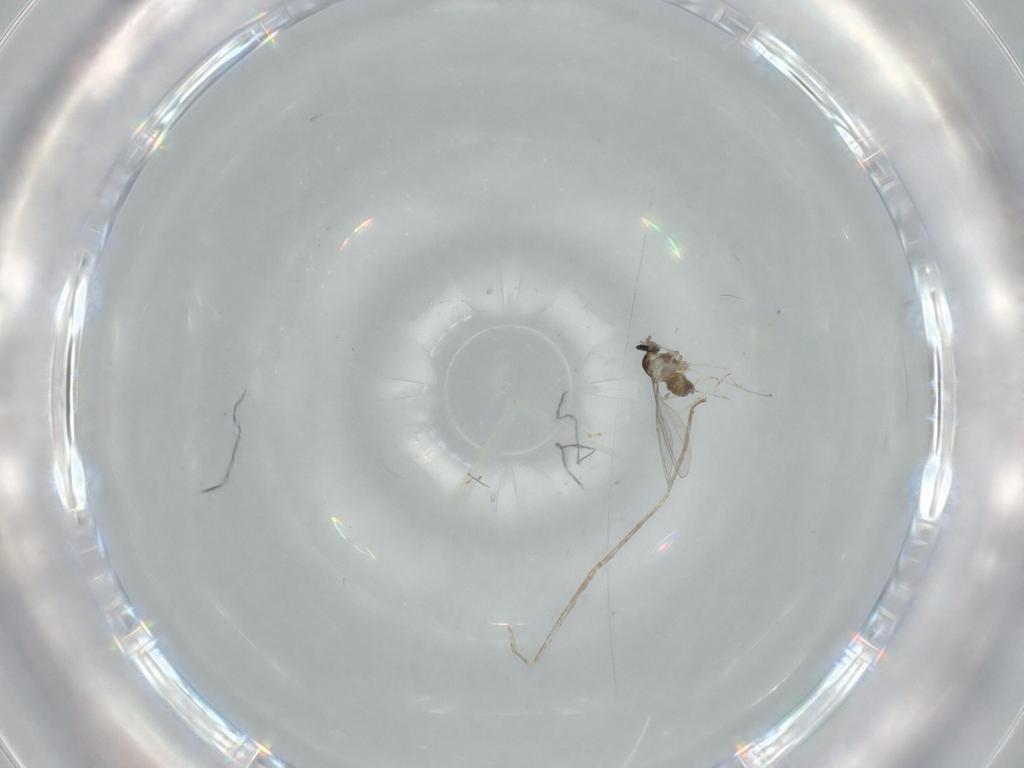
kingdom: Animalia
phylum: Arthropoda
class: Insecta
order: Diptera
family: Cecidomyiidae
